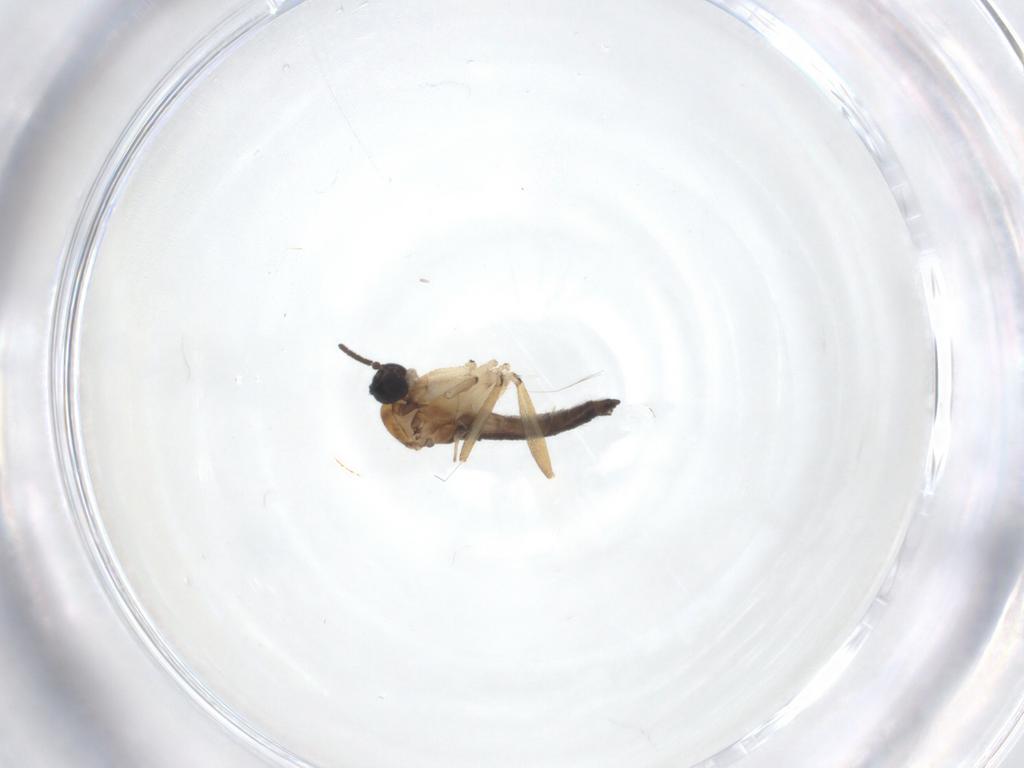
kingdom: Animalia
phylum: Arthropoda
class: Insecta
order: Diptera
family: Sciaridae
